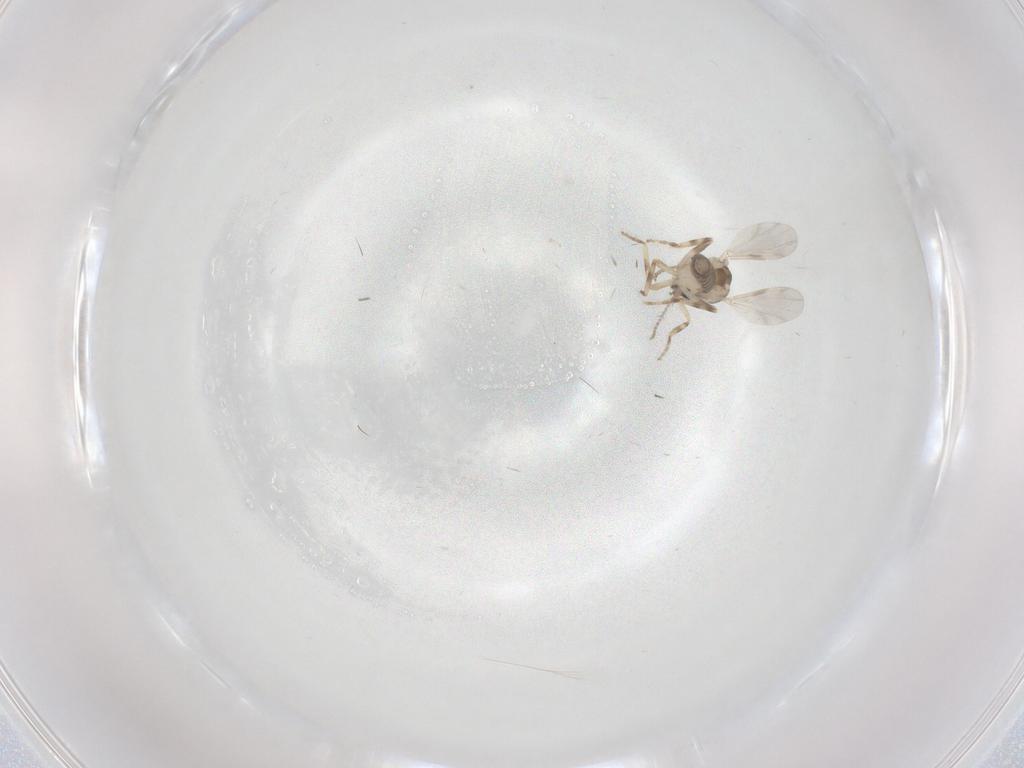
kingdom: Animalia
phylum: Arthropoda
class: Insecta
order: Diptera
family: Ceratopogonidae
